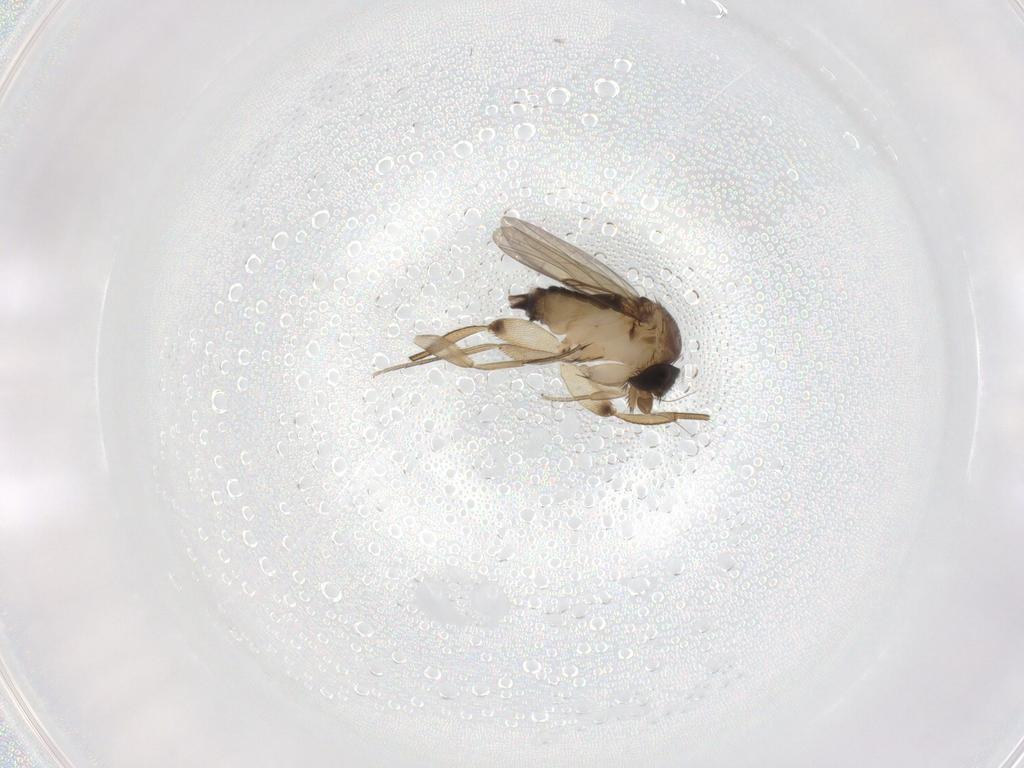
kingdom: Animalia
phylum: Arthropoda
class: Insecta
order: Diptera
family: Phoridae
